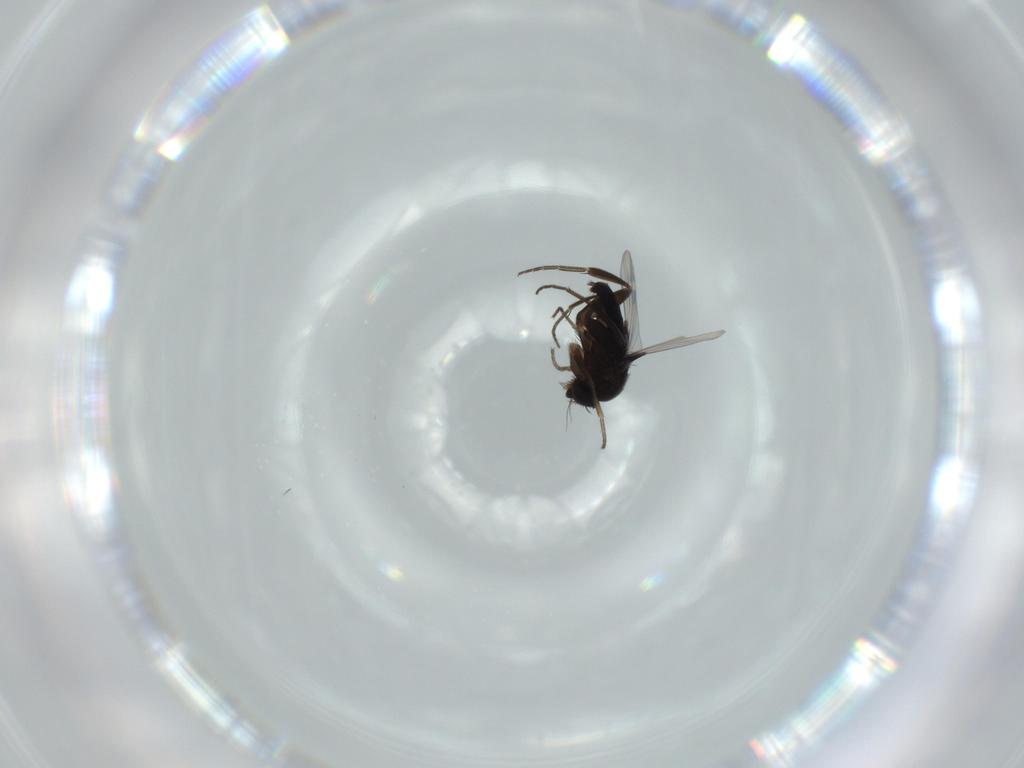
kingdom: Animalia
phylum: Arthropoda
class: Insecta
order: Diptera
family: Phoridae
